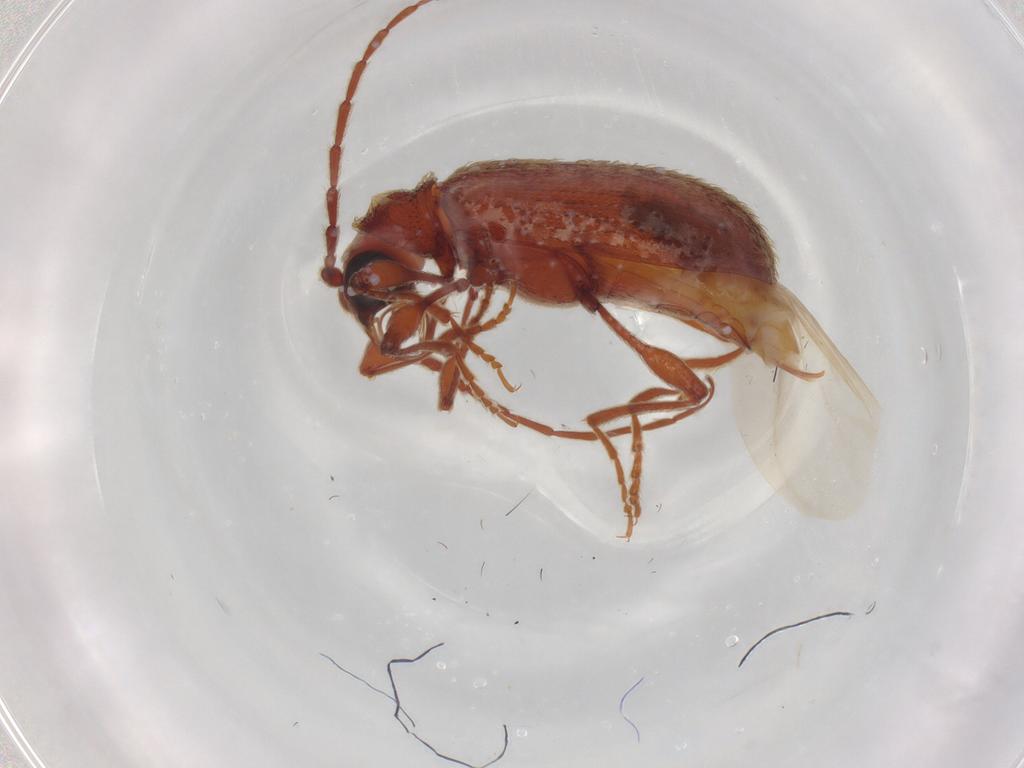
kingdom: Animalia
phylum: Arthropoda
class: Insecta
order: Coleoptera
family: Ptinidae
